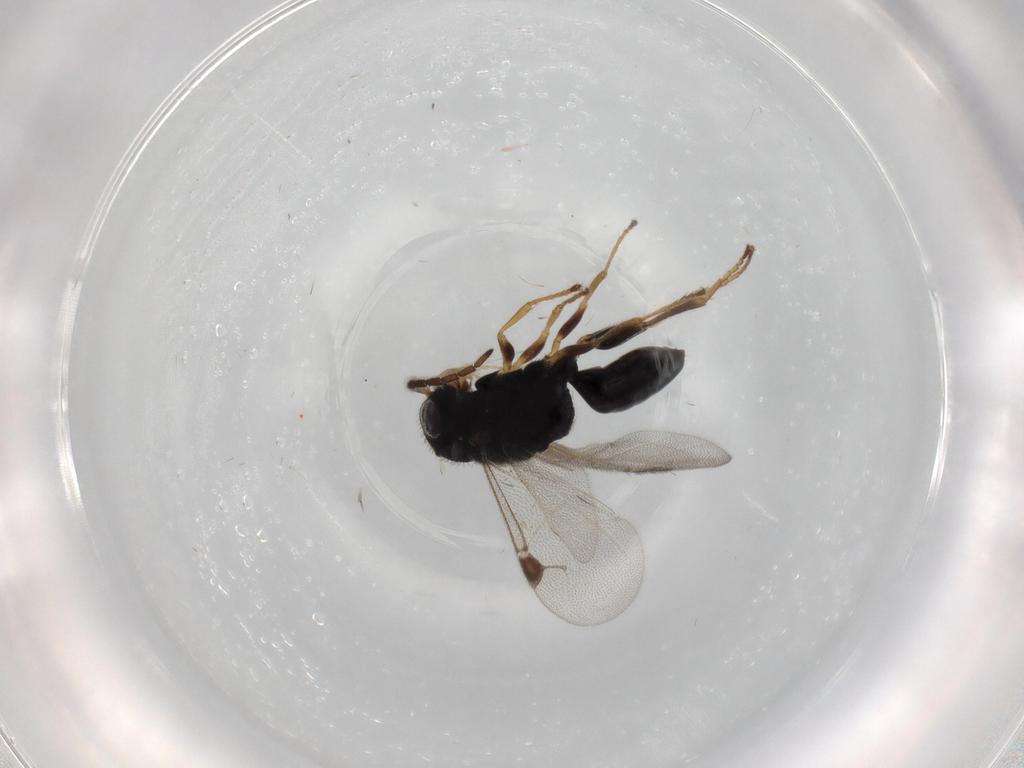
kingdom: Animalia
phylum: Arthropoda
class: Insecta
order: Hymenoptera
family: Dryinidae
